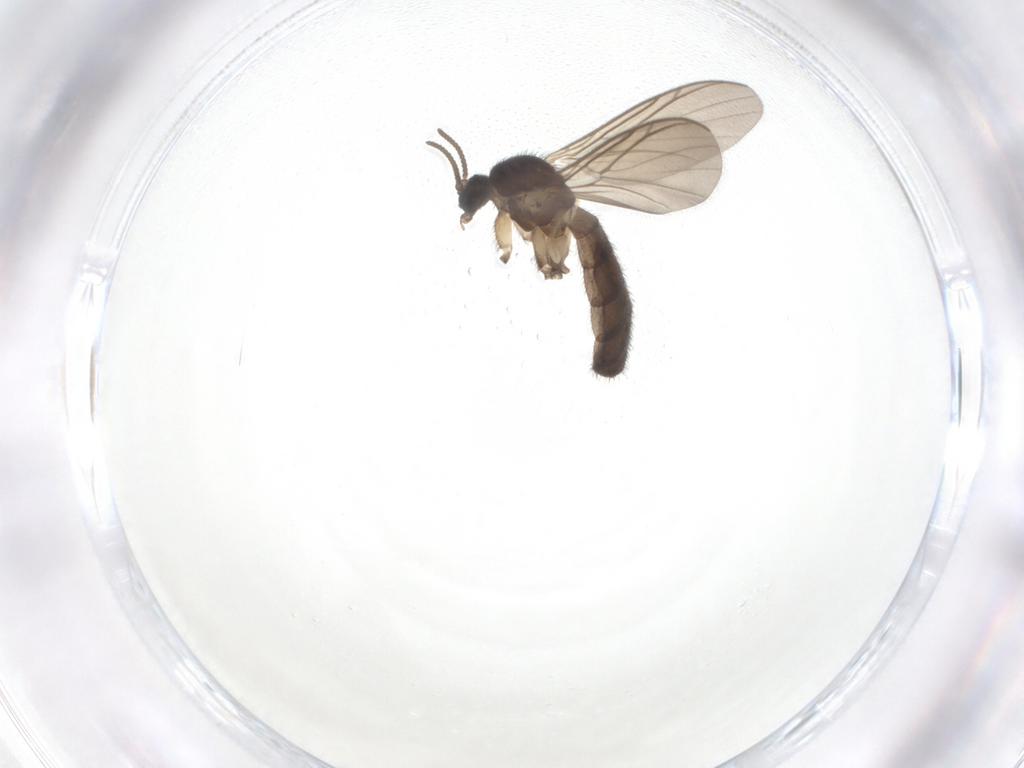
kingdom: Animalia
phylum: Arthropoda
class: Insecta
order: Diptera
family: Keroplatidae
